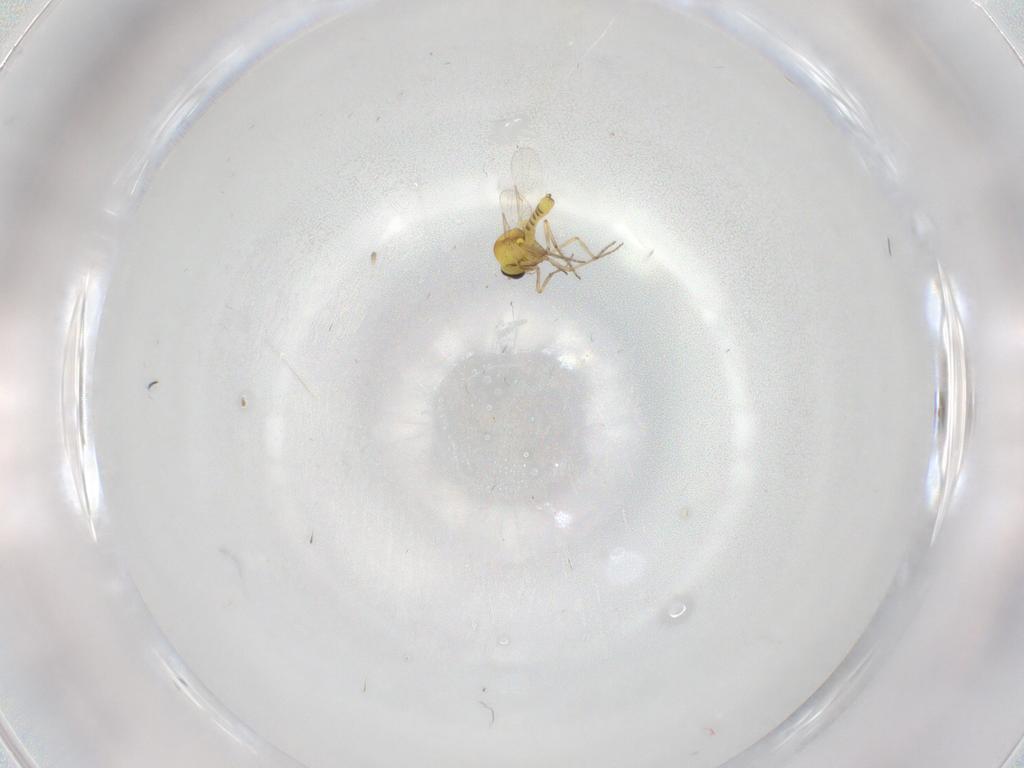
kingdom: Animalia
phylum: Arthropoda
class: Insecta
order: Diptera
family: Ceratopogonidae
